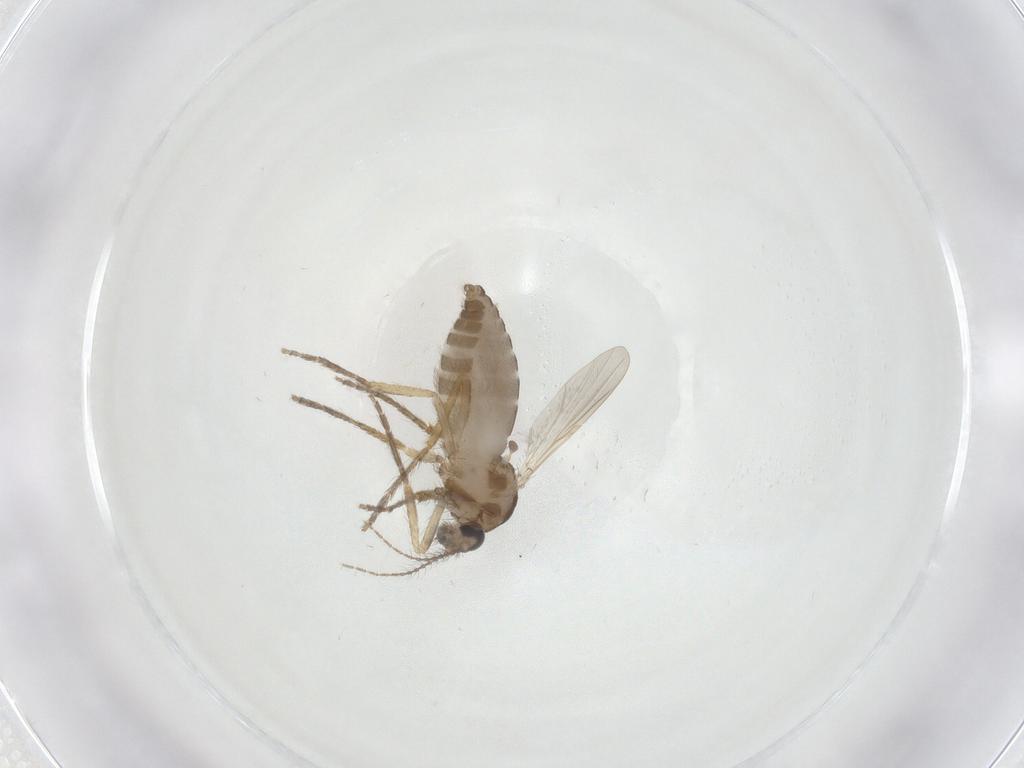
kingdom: Animalia
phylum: Arthropoda
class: Insecta
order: Diptera
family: Ceratopogonidae
